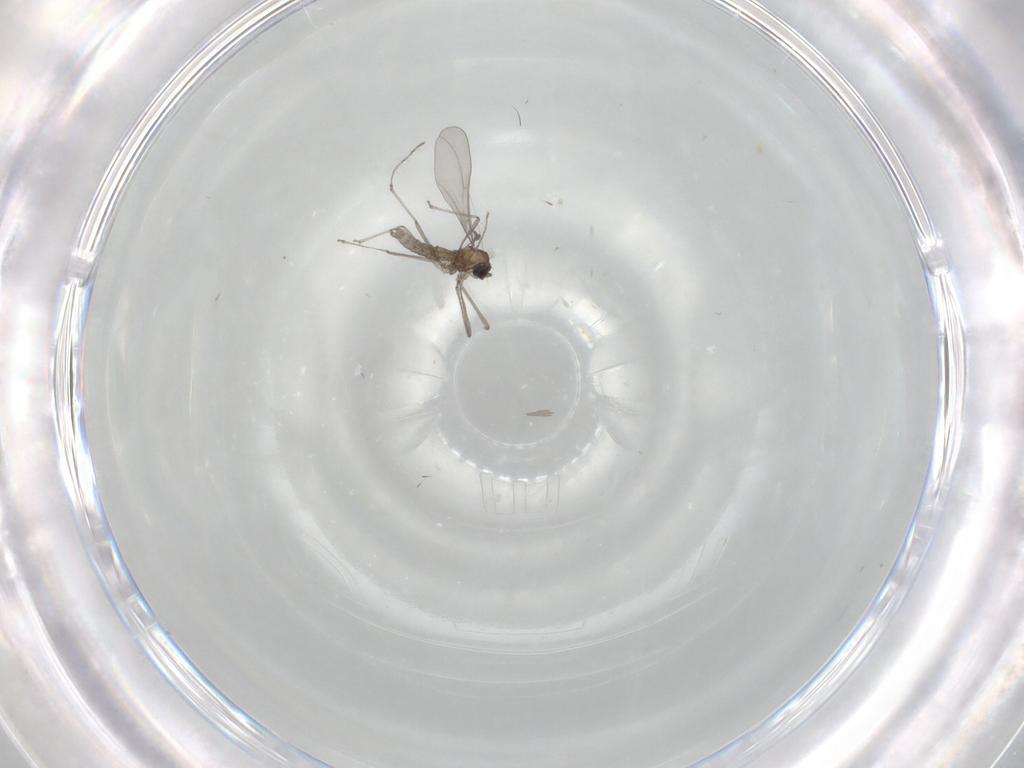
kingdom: Animalia
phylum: Arthropoda
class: Insecta
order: Diptera
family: Cecidomyiidae
